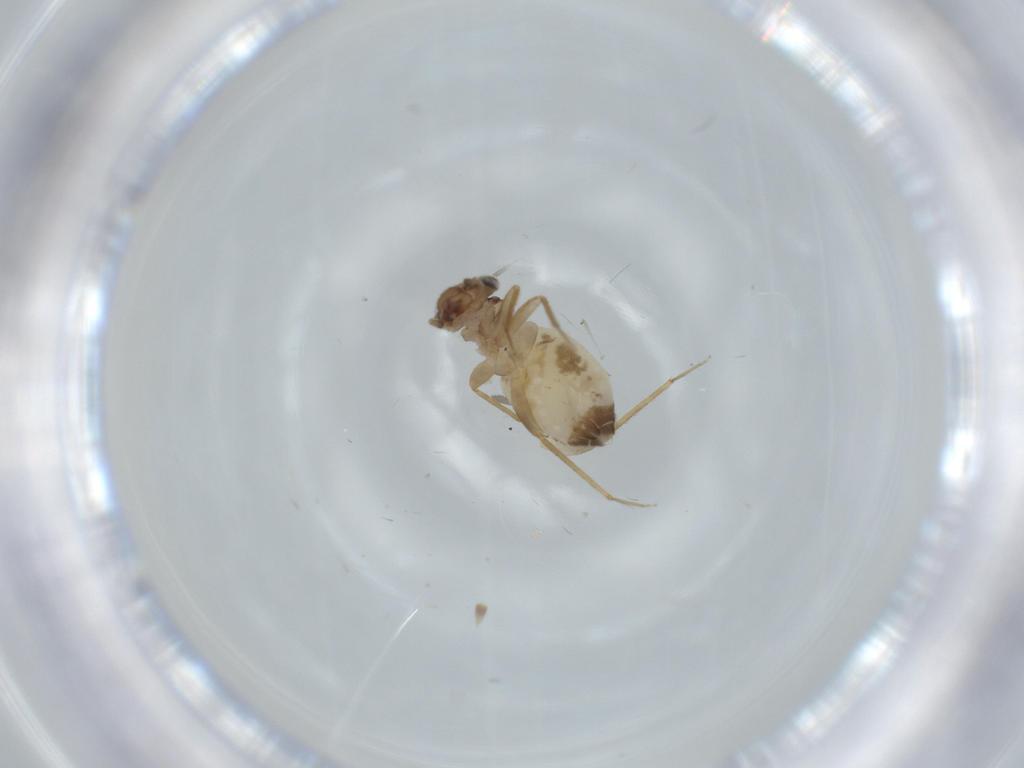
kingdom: Animalia
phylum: Arthropoda
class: Insecta
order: Psocodea
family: Lepidopsocidae
